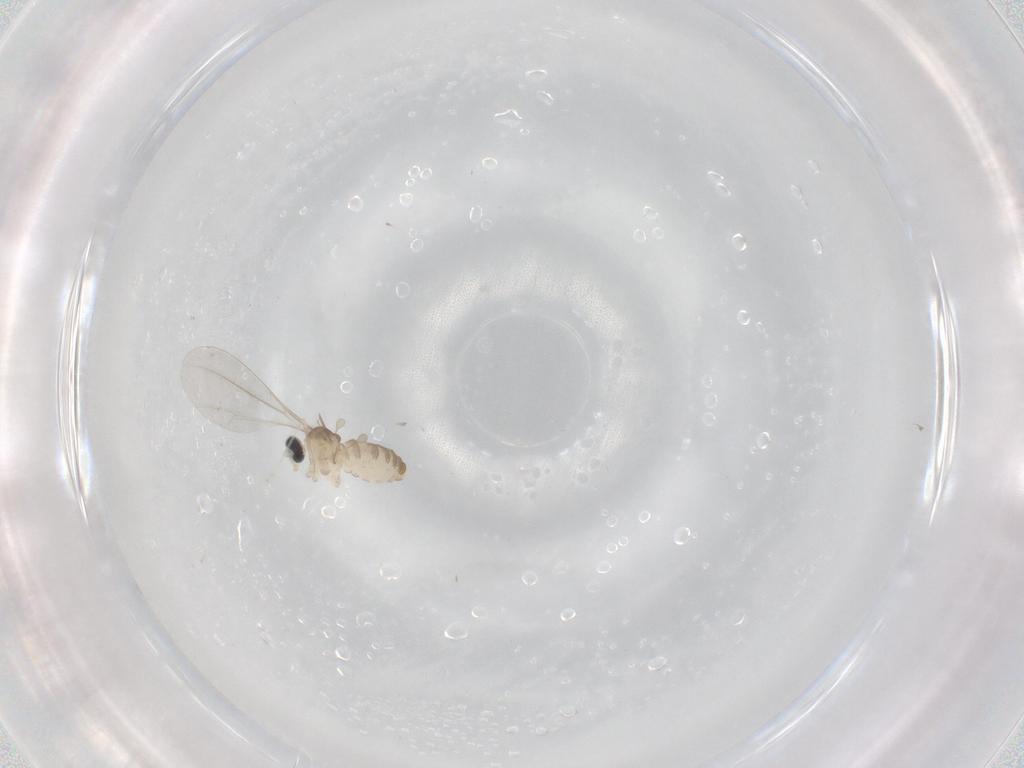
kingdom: Animalia
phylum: Arthropoda
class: Insecta
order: Diptera
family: Cecidomyiidae
